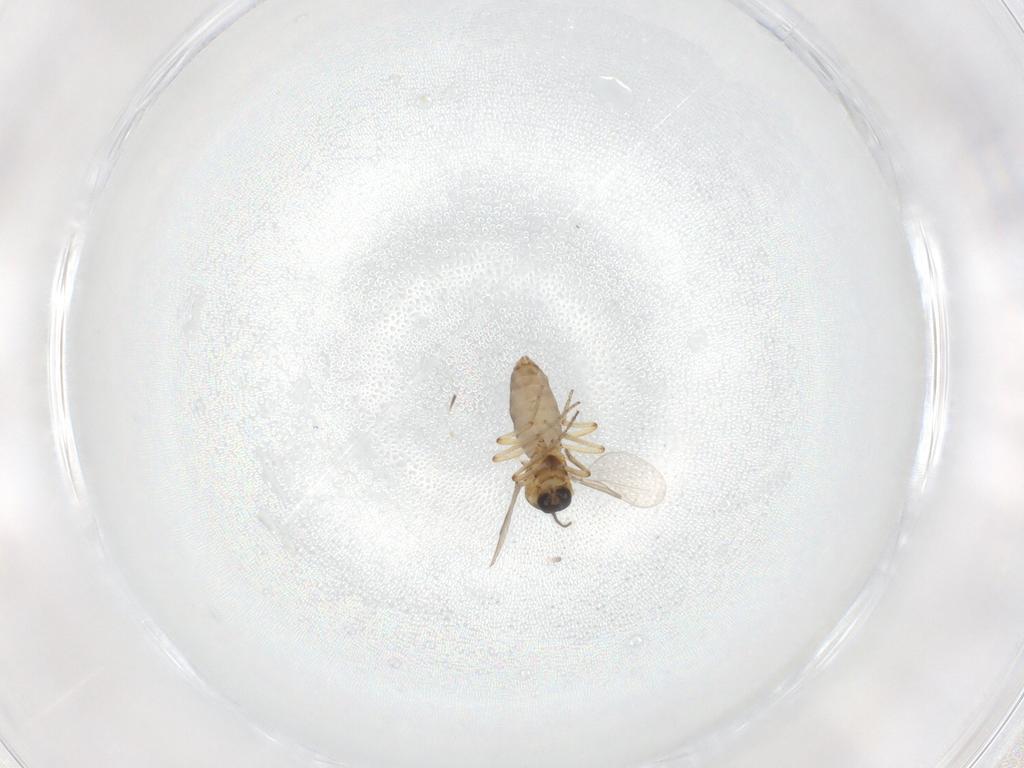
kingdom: Animalia
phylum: Arthropoda
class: Insecta
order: Diptera
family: Ceratopogonidae
